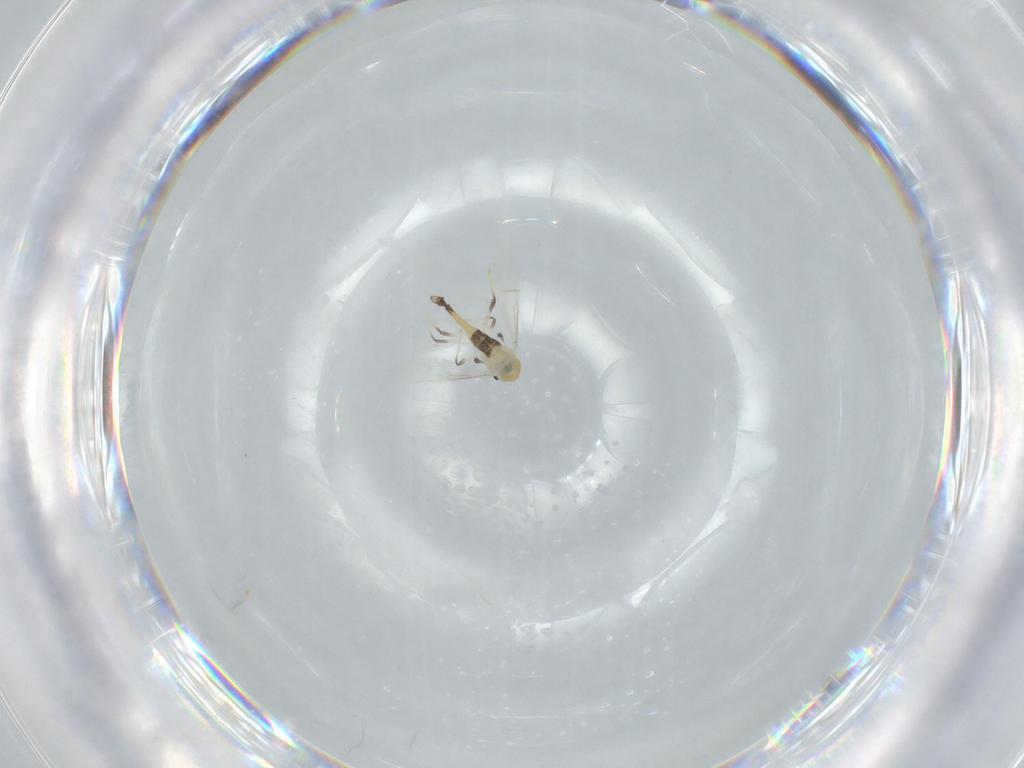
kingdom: Animalia
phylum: Arthropoda
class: Insecta
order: Diptera
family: Chironomidae
